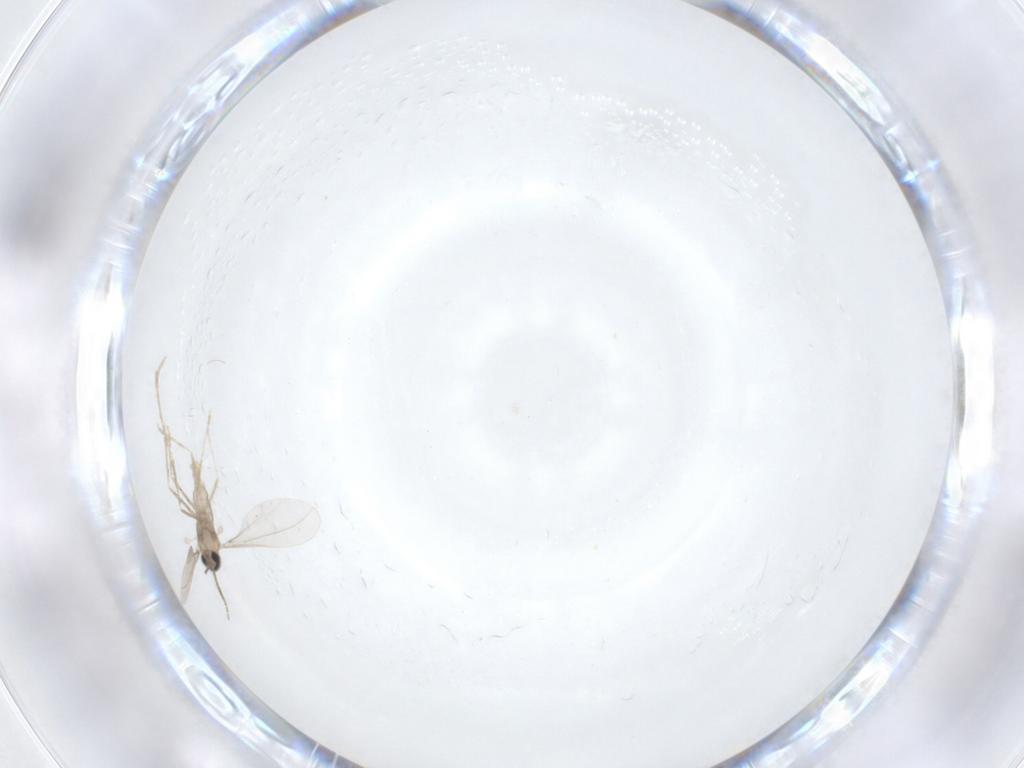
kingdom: Animalia
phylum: Arthropoda
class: Insecta
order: Diptera
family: Cecidomyiidae
